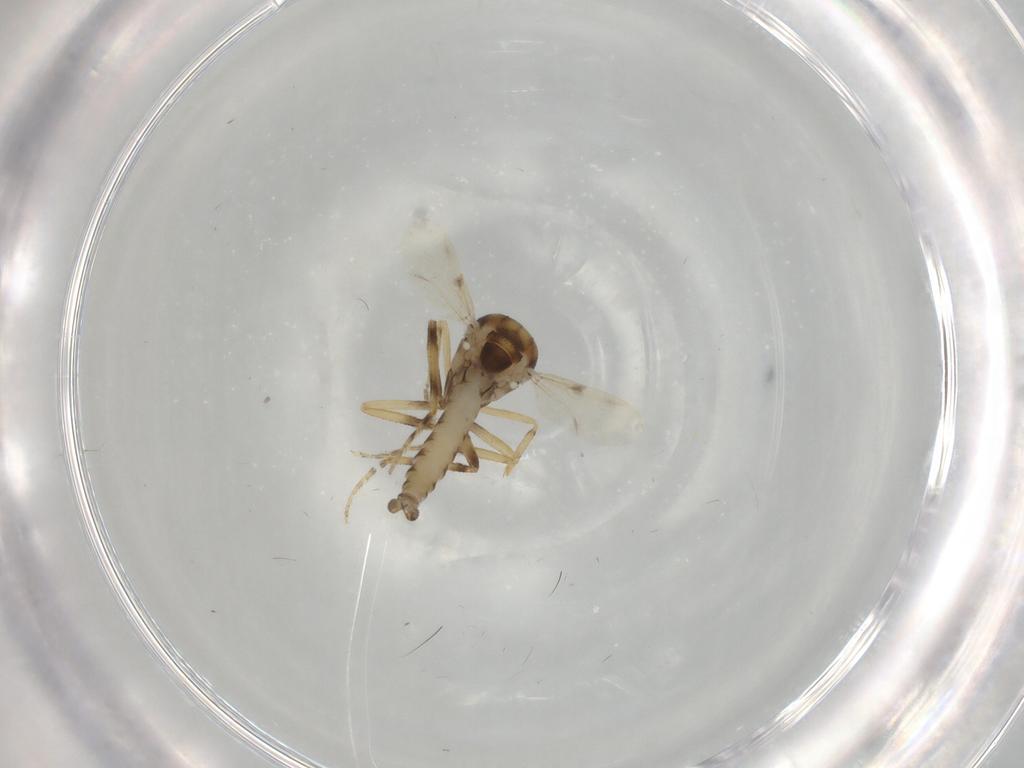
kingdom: Animalia
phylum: Arthropoda
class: Insecta
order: Diptera
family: Ceratopogonidae
